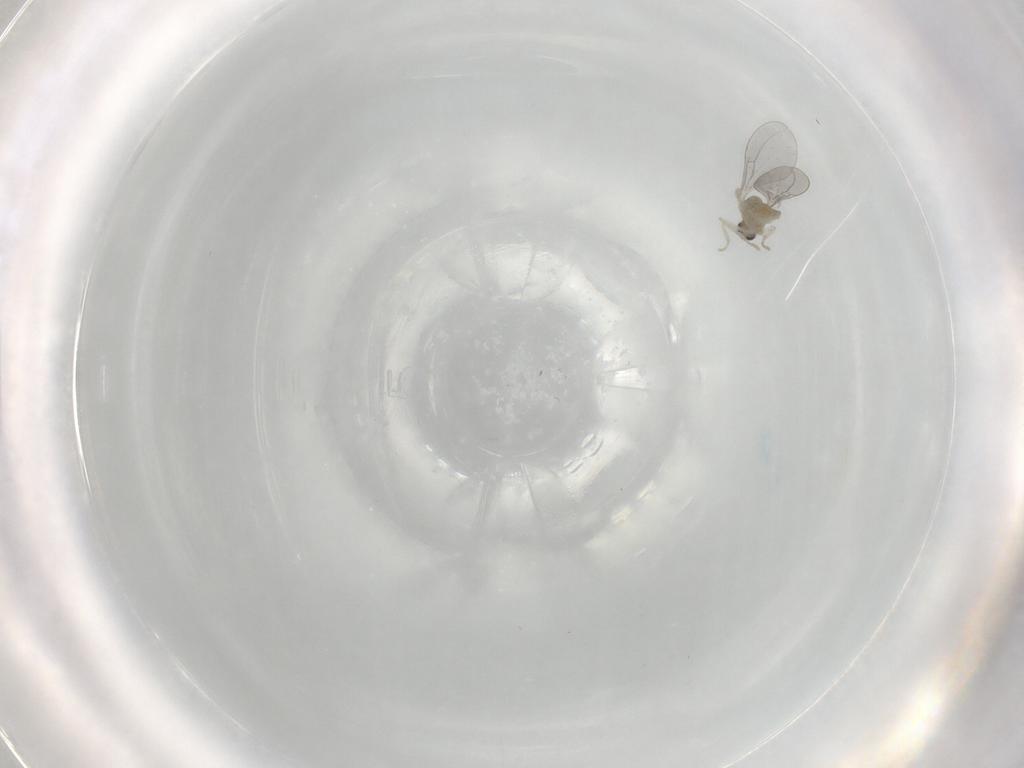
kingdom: Animalia
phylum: Arthropoda
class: Insecta
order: Diptera
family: Cecidomyiidae
